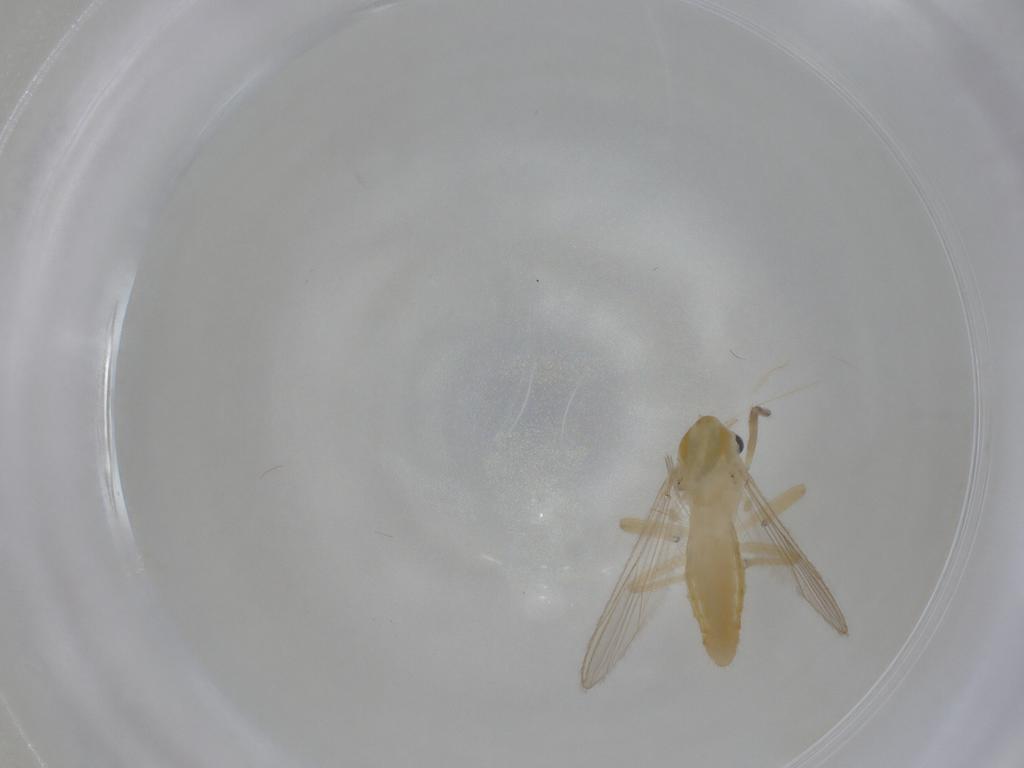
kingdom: Animalia
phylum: Arthropoda
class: Insecta
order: Diptera
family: Chironomidae
